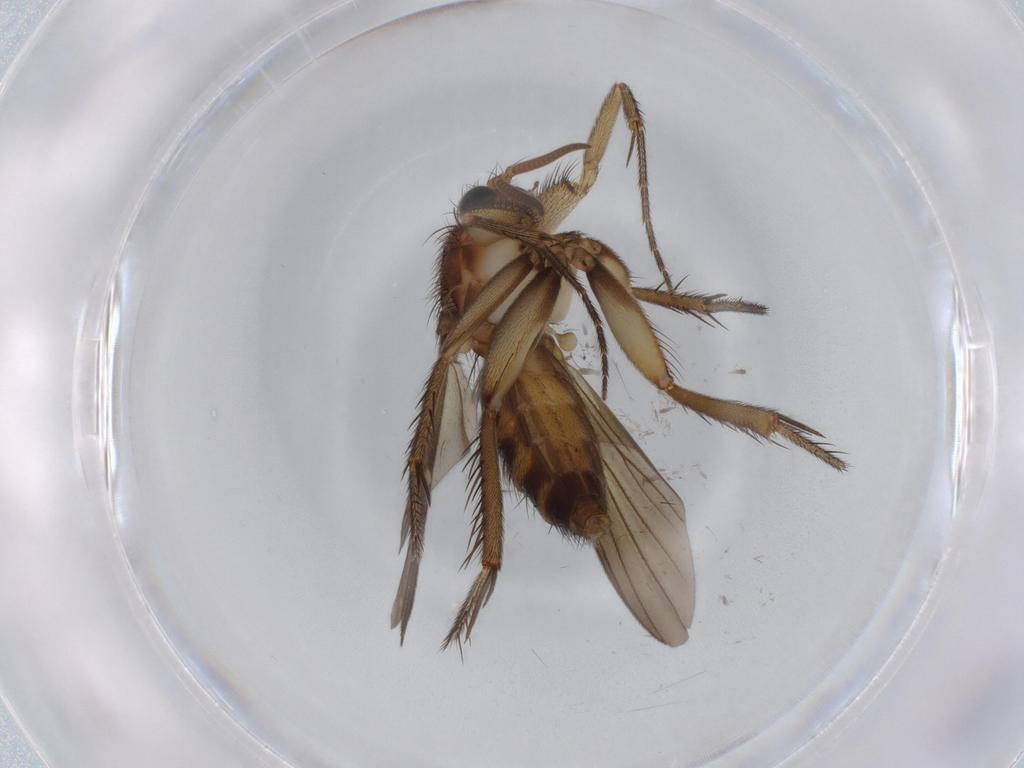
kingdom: Animalia
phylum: Arthropoda
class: Insecta
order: Diptera
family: Mycetophilidae
